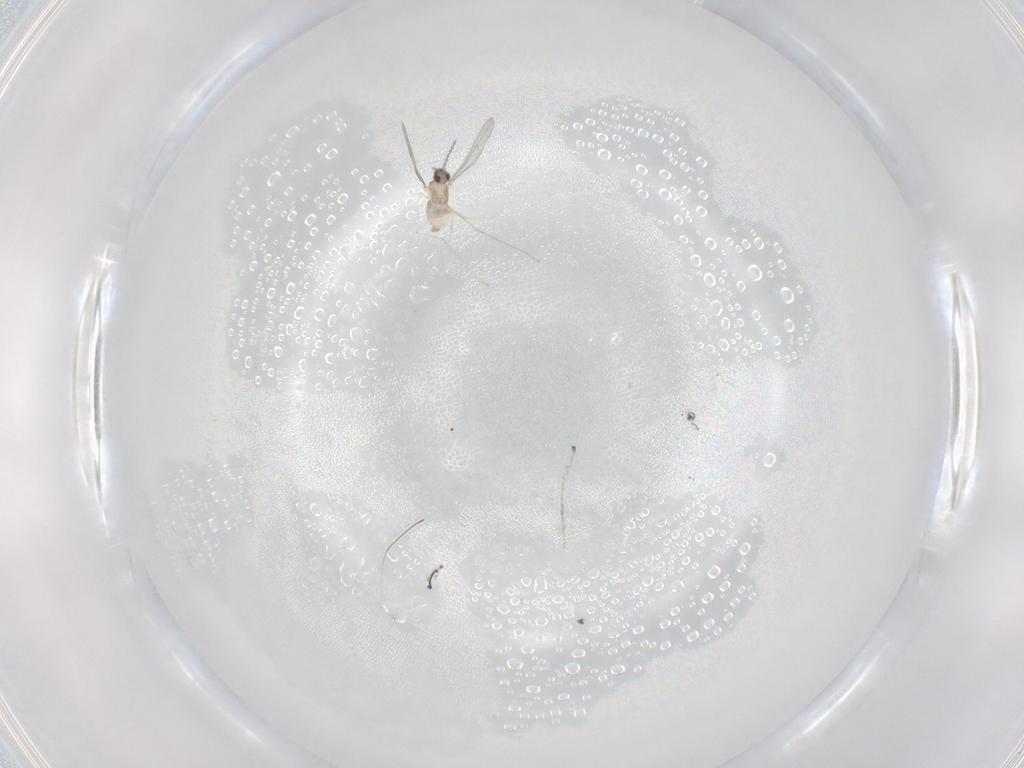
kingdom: Animalia
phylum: Arthropoda
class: Insecta
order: Diptera
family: Cecidomyiidae
